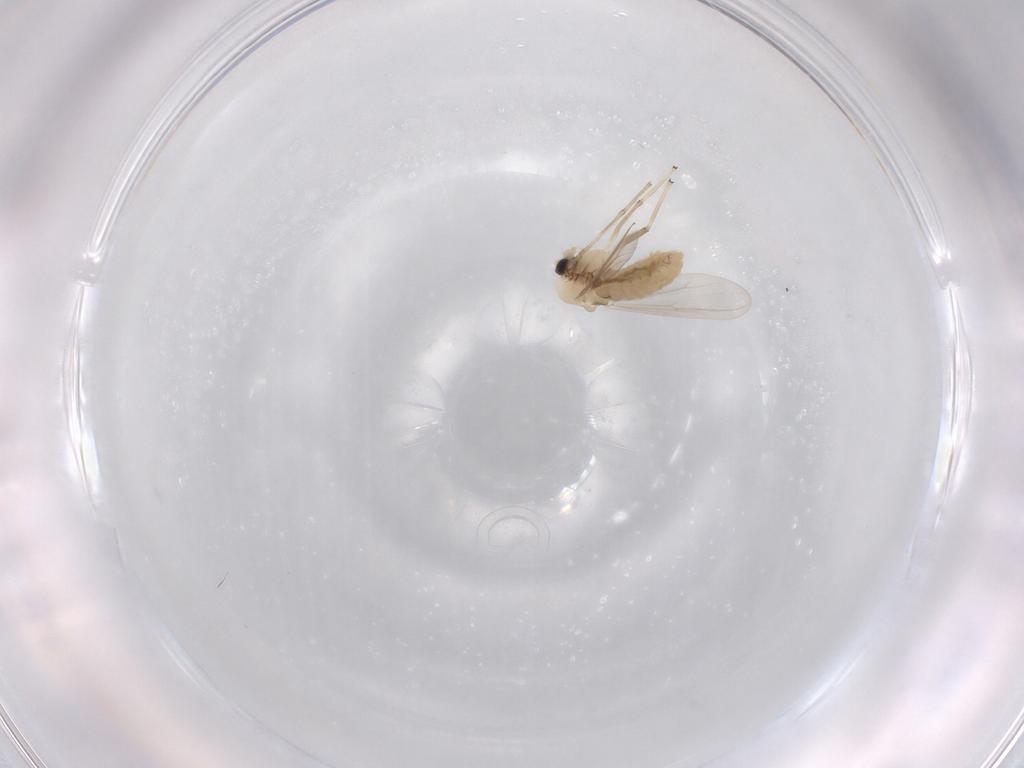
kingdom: Animalia
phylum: Arthropoda
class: Insecta
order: Diptera
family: Chironomidae
